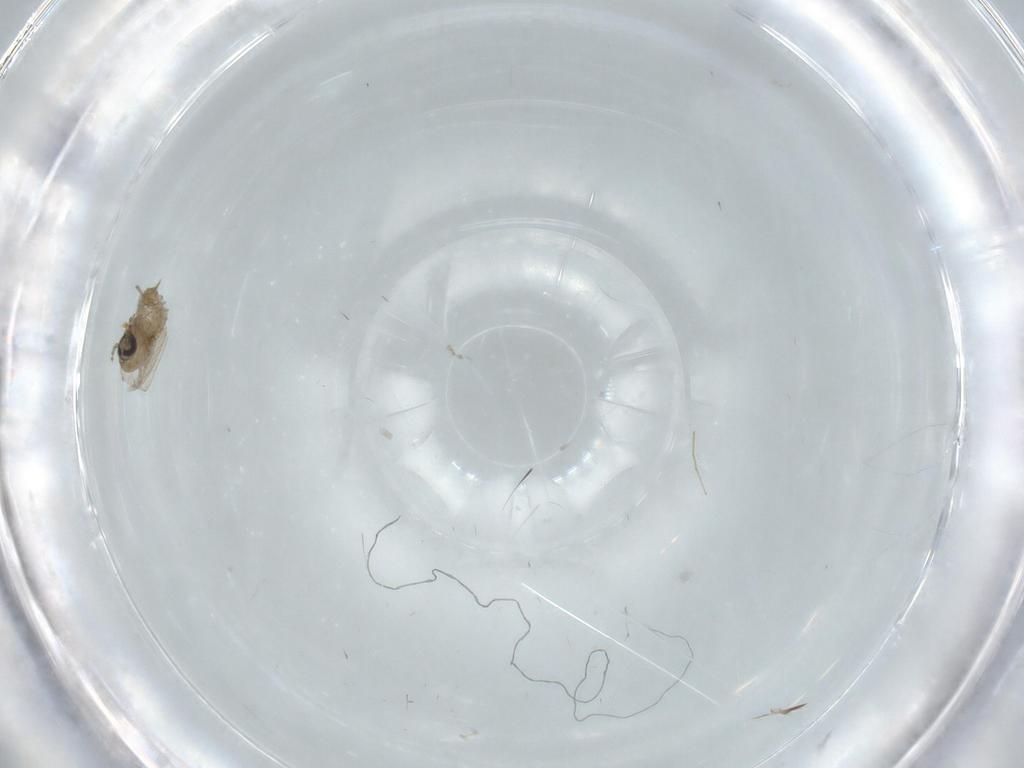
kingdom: Animalia
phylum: Arthropoda
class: Insecta
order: Diptera
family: Psychodidae
